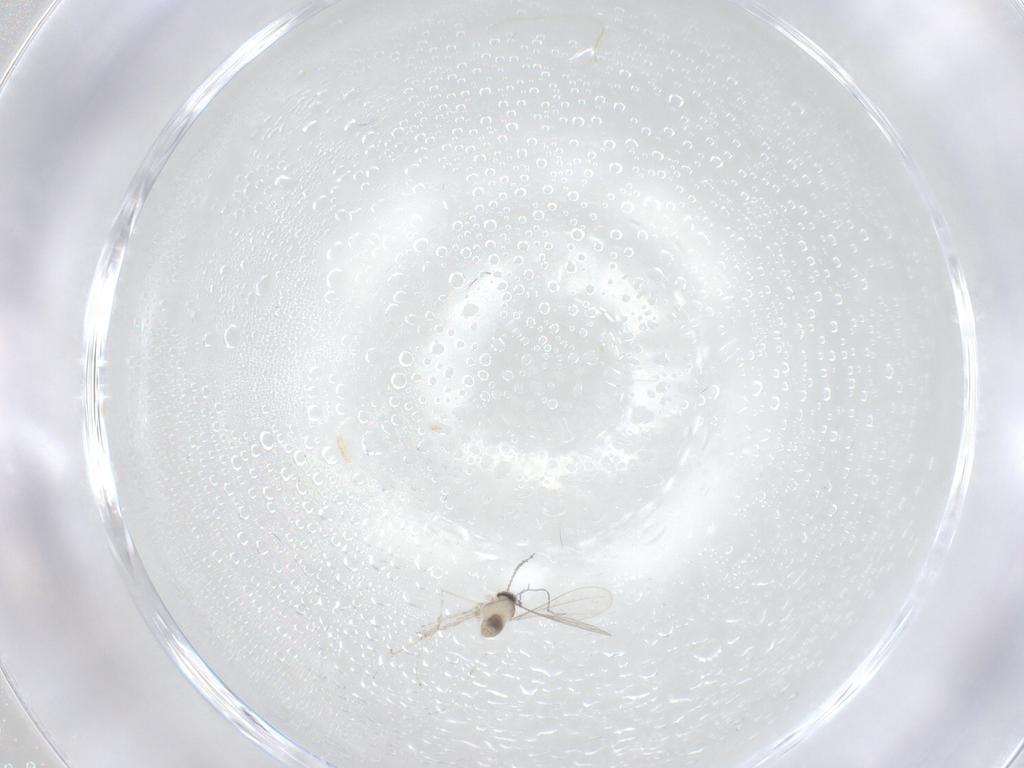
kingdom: Animalia
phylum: Arthropoda
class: Insecta
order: Diptera
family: Cecidomyiidae
